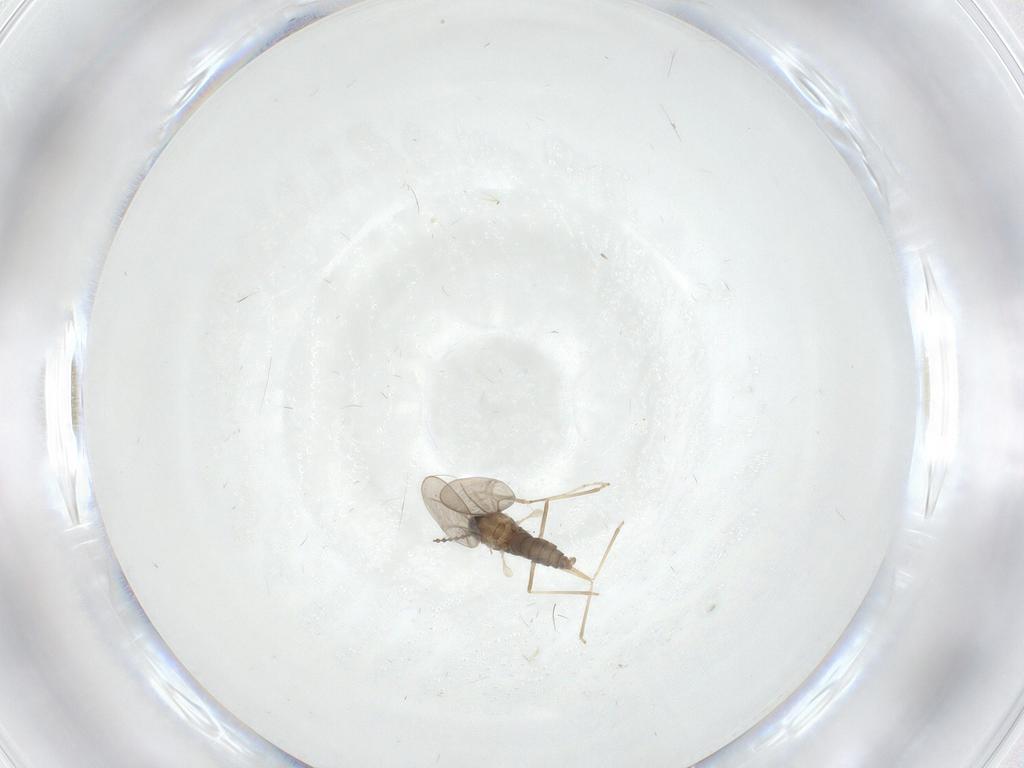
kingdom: Animalia
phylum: Arthropoda
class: Insecta
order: Diptera
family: Cecidomyiidae
